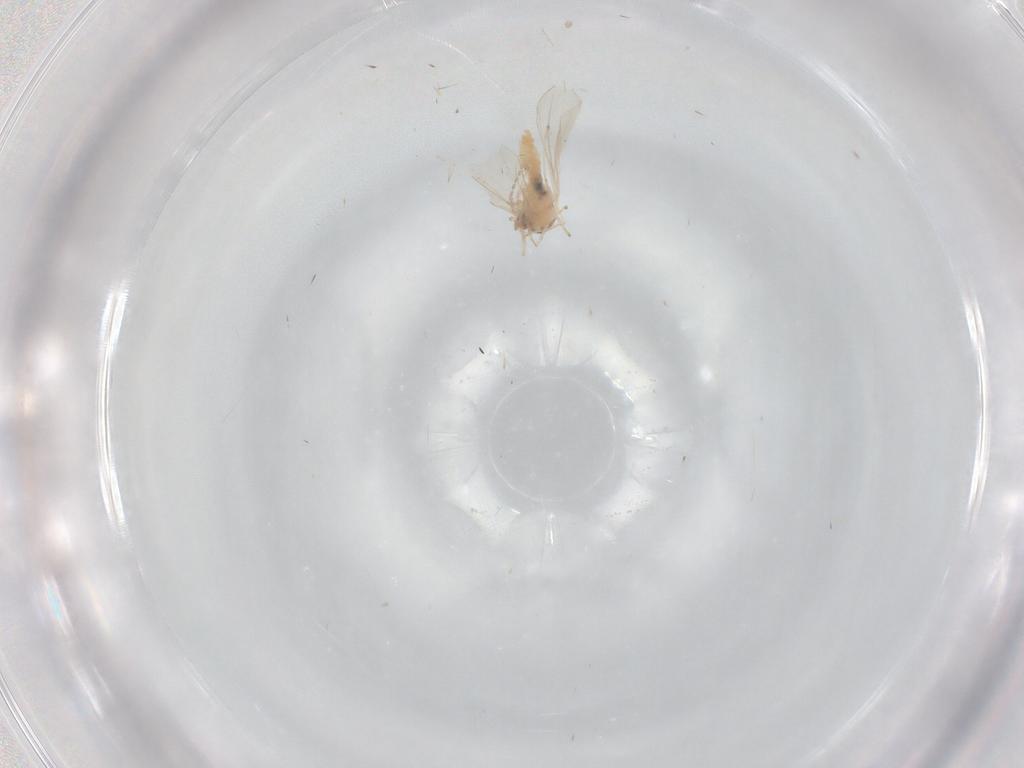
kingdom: Animalia
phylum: Arthropoda
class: Insecta
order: Diptera
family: Cecidomyiidae
